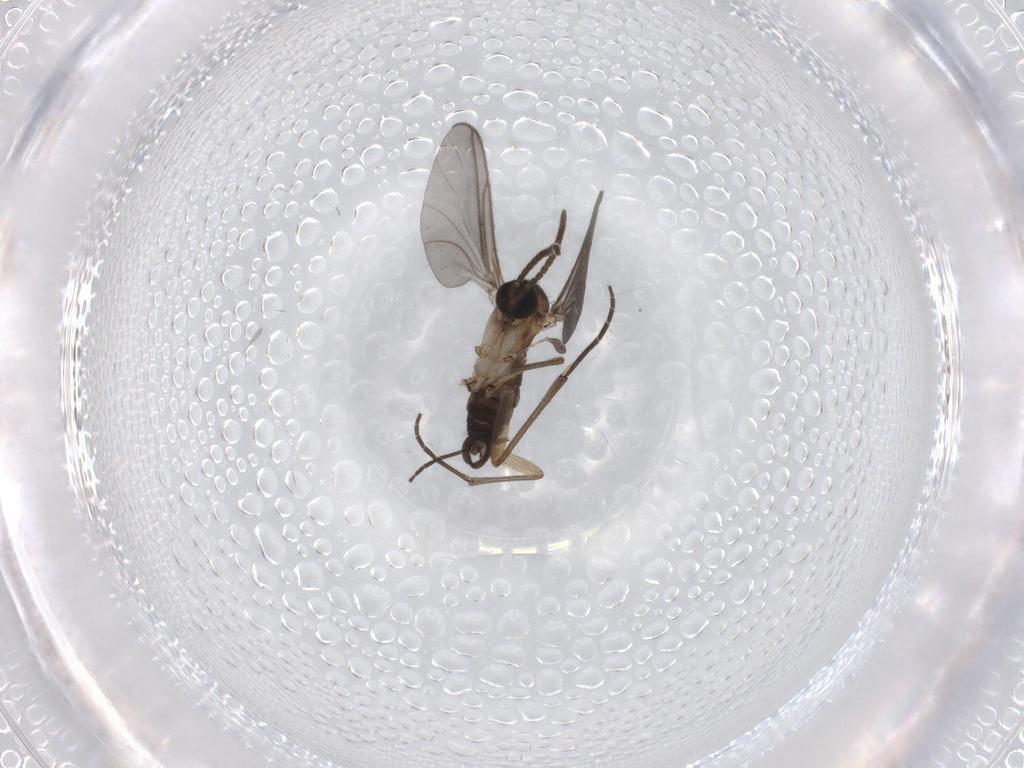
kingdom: Animalia
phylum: Arthropoda
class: Insecta
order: Diptera
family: Sciaridae
